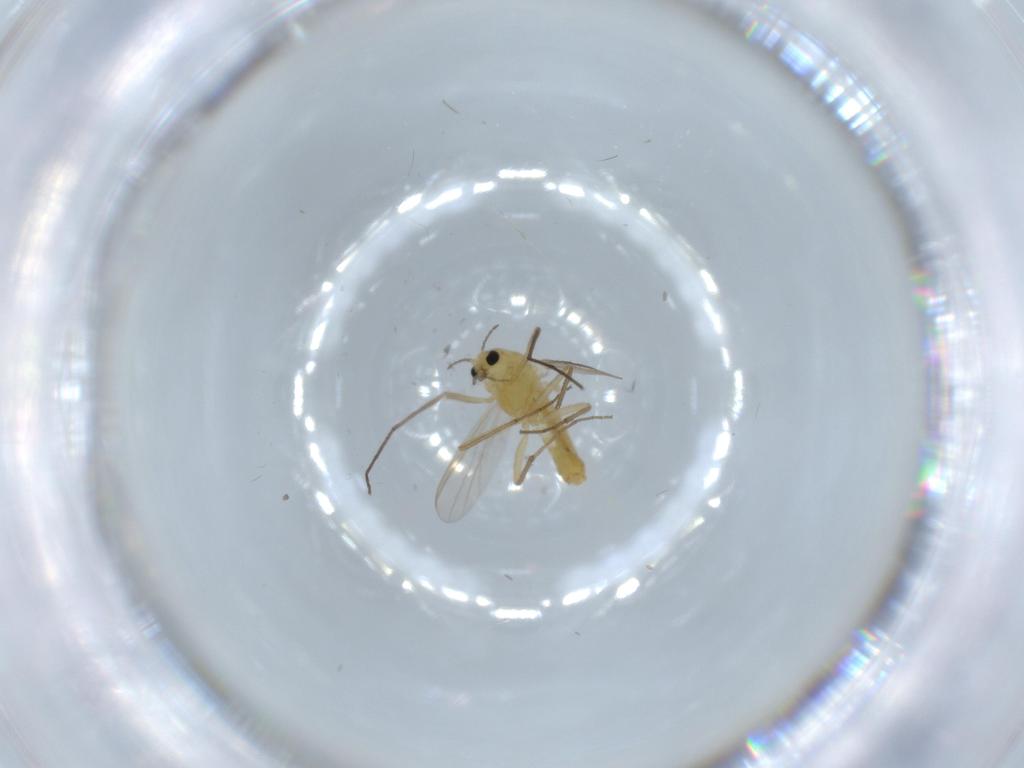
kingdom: Animalia
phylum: Arthropoda
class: Insecta
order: Diptera
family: Chironomidae
